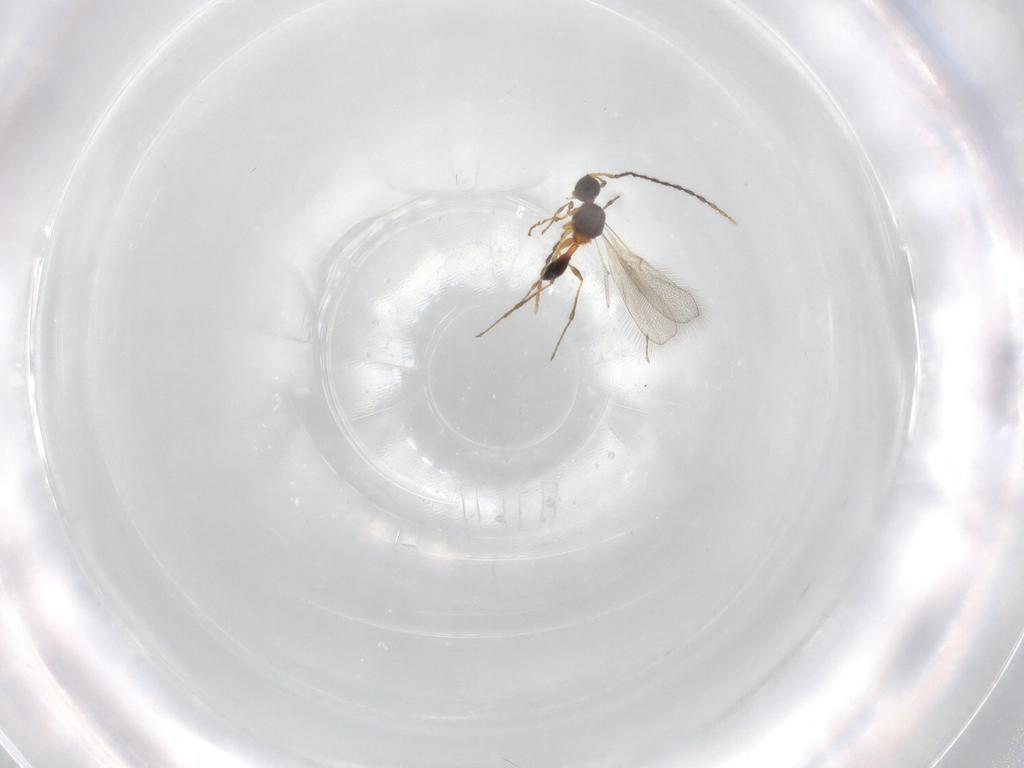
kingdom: Animalia
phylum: Arthropoda
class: Insecta
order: Hymenoptera
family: Diapriidae
